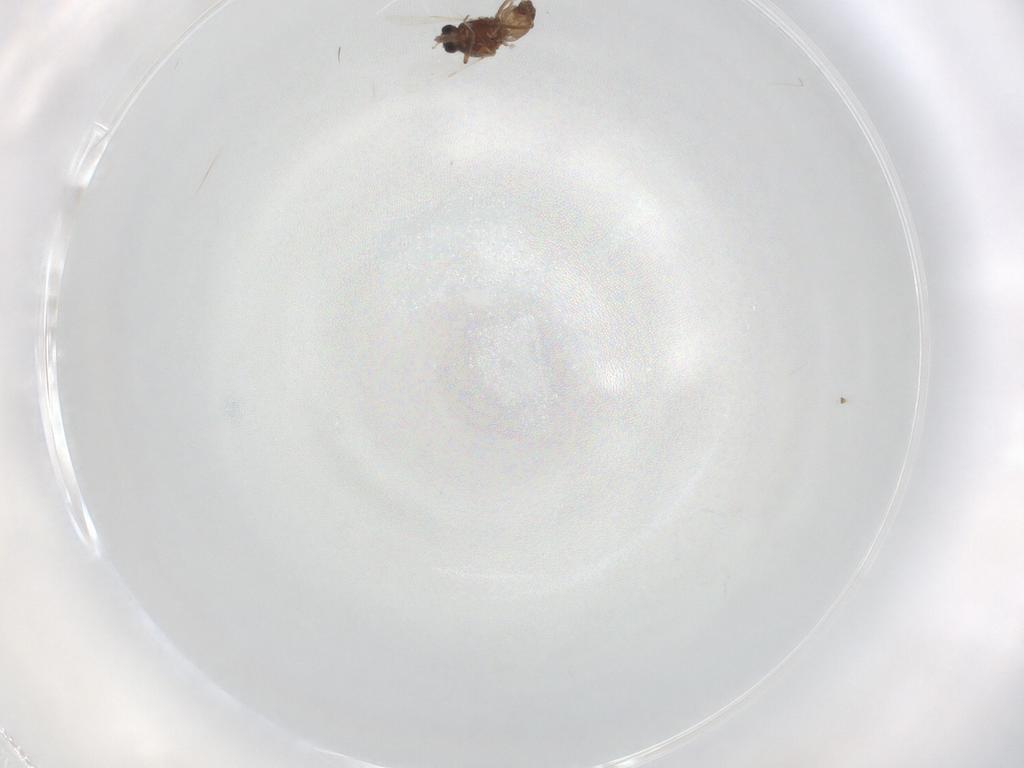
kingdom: Animalia
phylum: Arthropoda
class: Insecta
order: Diptera
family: Ceratopogonidae
